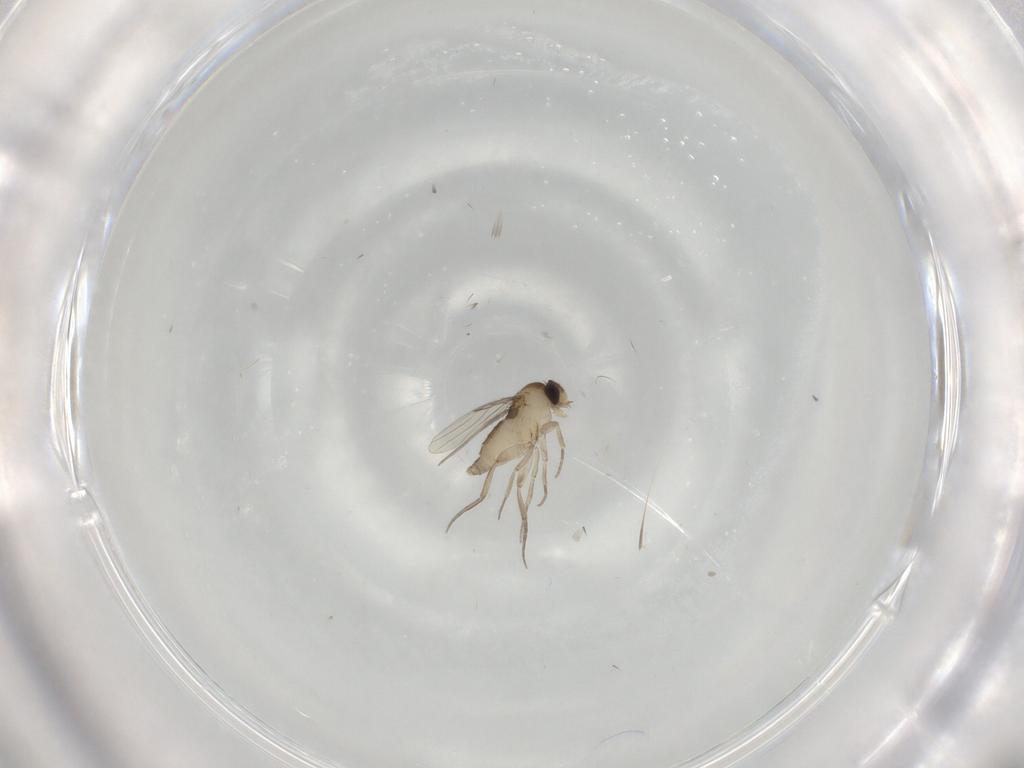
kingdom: Animalia
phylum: Arthropoda
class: Insecta
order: Diptera
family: Phoridae
